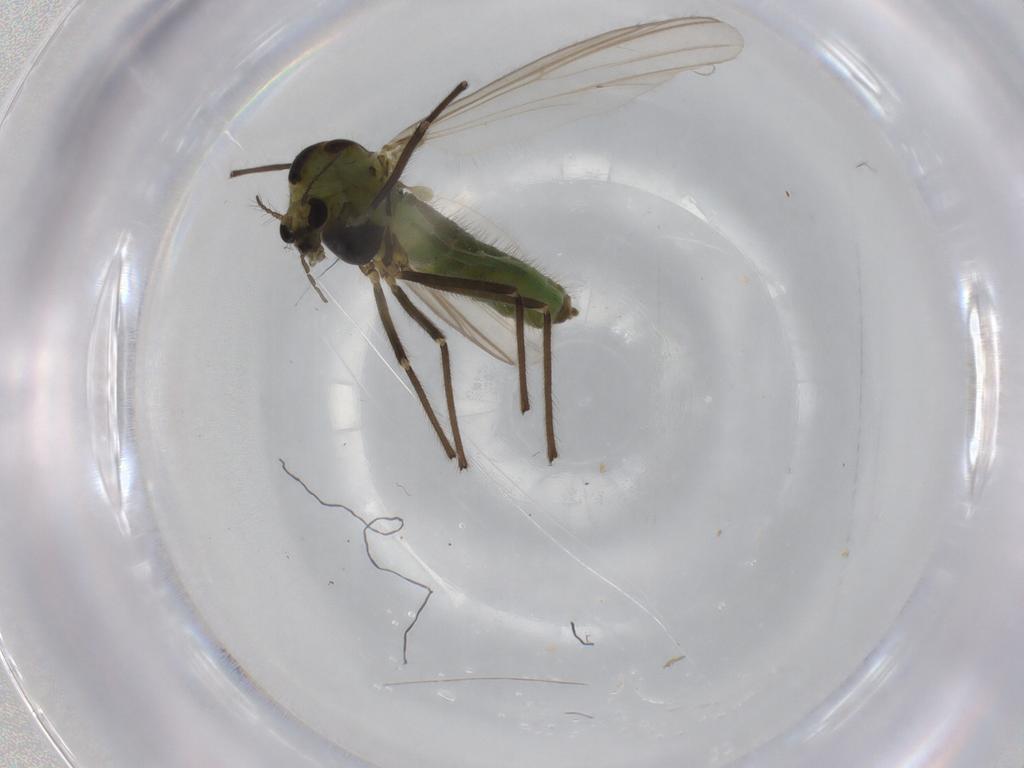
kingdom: Animalia
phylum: Arthropoda
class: Insecta
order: Diptera
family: Chironomidae
